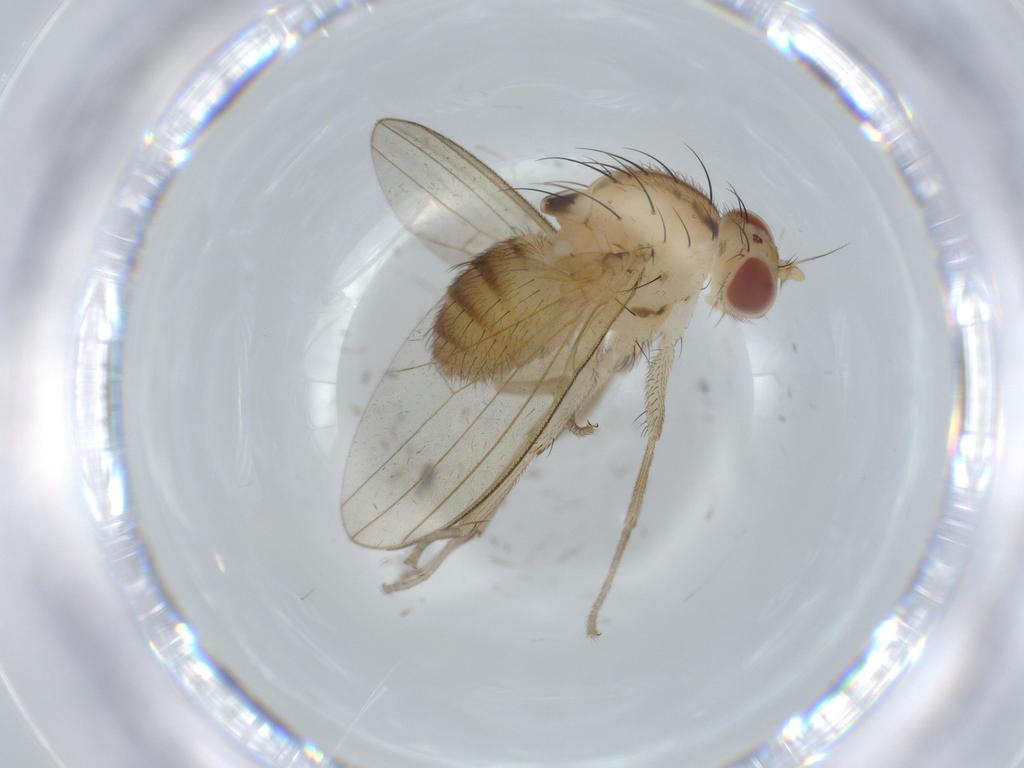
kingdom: Animalia
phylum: Arthropoda
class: Insecta
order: Diptera
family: Lauxaniidae
